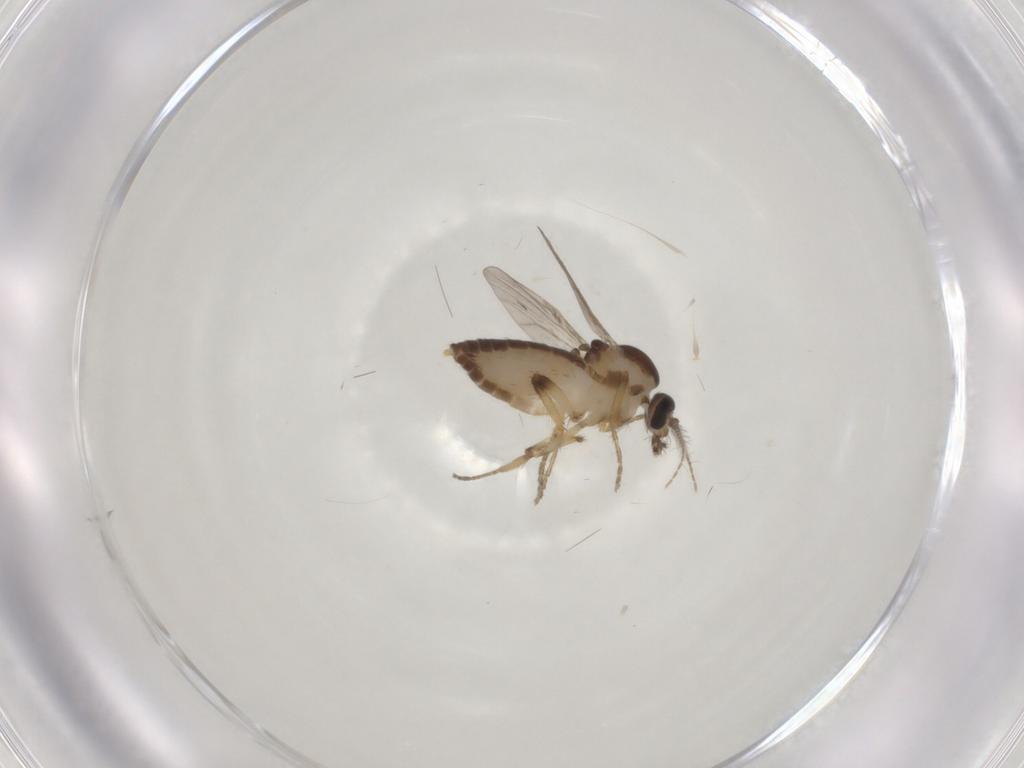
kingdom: Animalia
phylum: Arthropoda
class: Insecta
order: Diptera
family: Ceratopogonidae
